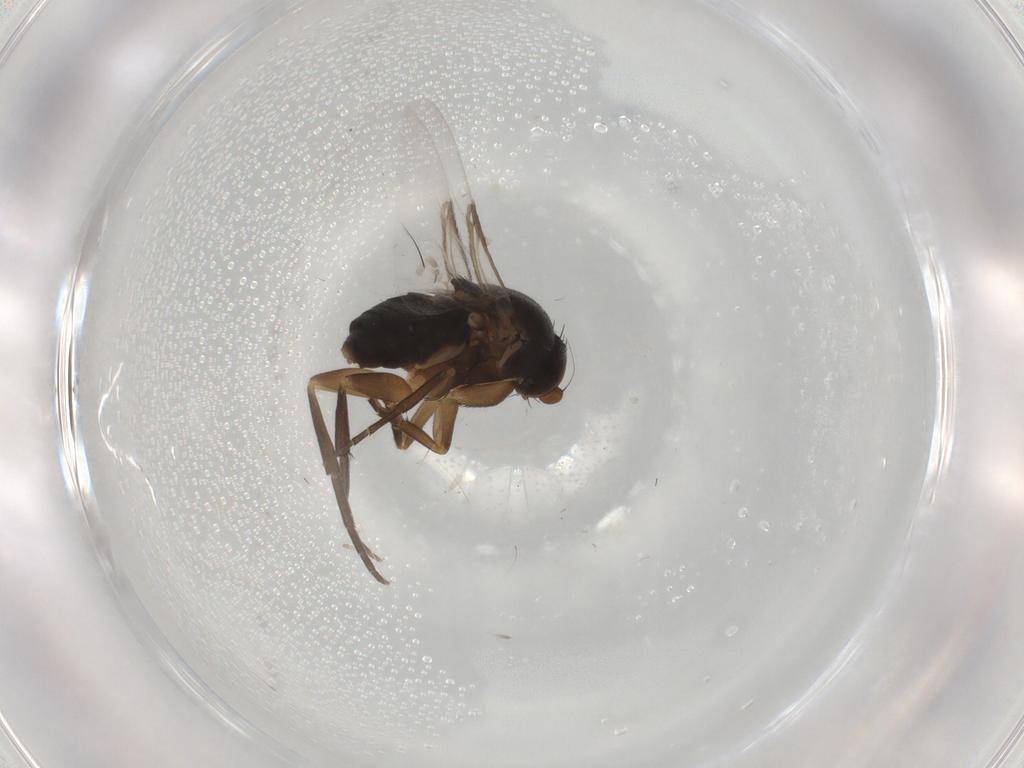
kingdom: Animalia
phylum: Arthropoda
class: Insecta
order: Diptera
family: Phoridae
